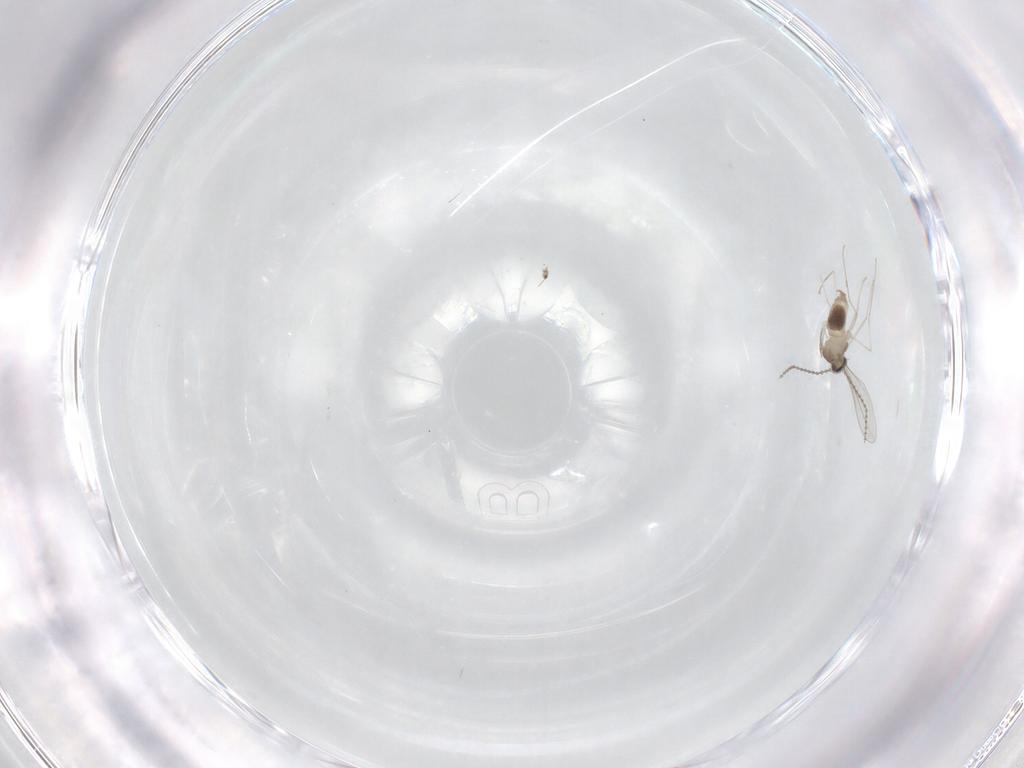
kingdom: Animalia
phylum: Arthropoda
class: Insecta
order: Diptera
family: Cecidomyiidae
